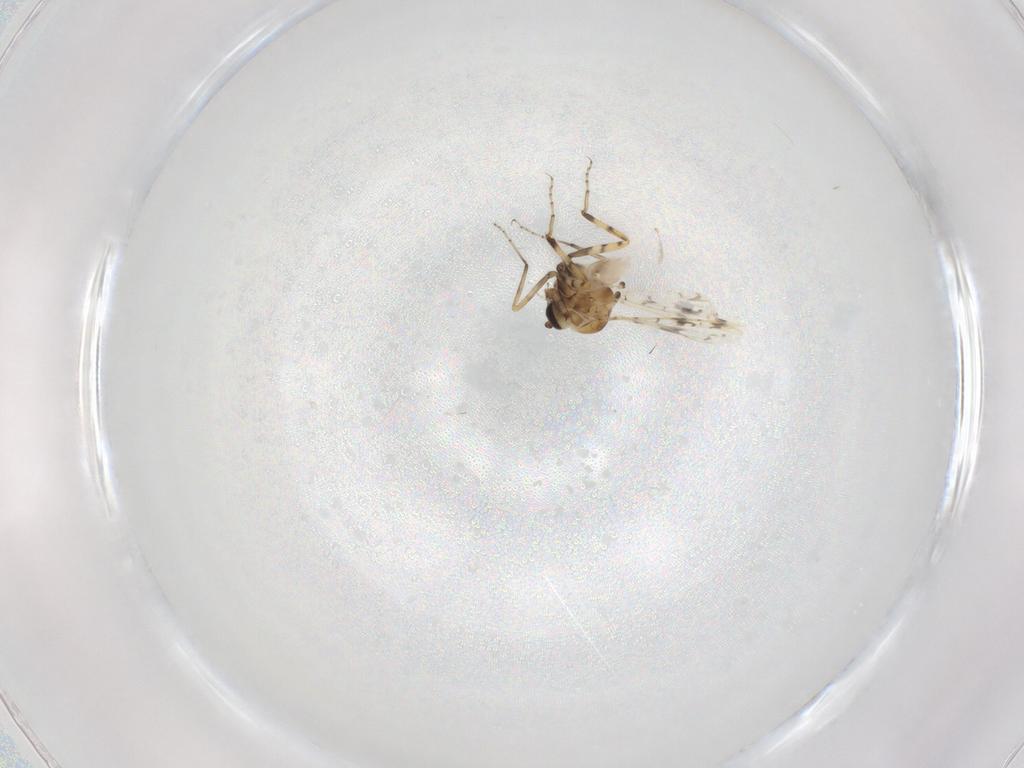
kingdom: Animalia
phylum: Arthropoda
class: Insecta
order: Diptera
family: Ceratopogonidae
